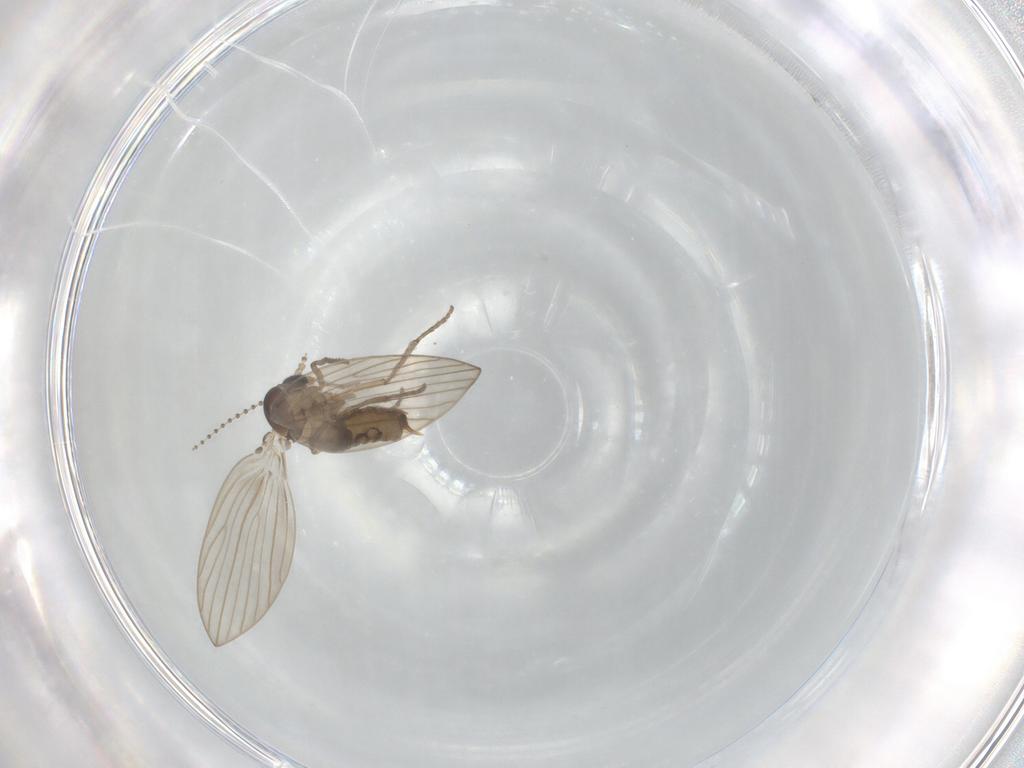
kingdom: Animalia
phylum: Arthropoda
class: Insecta
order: Diptera
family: Psychodidae
